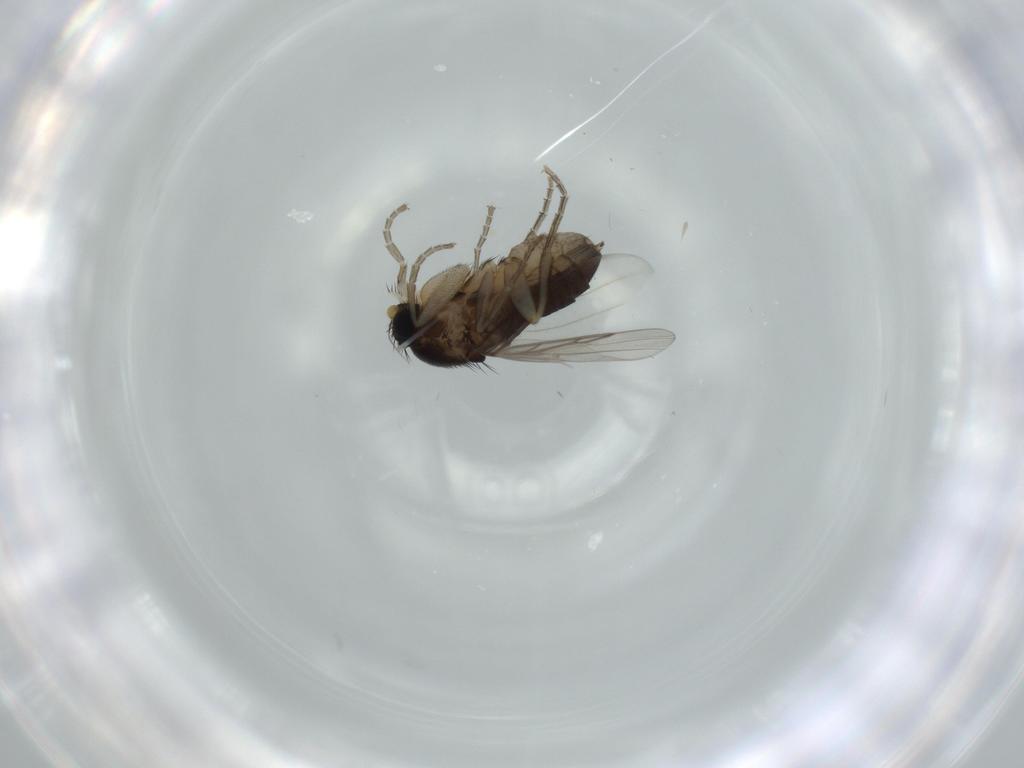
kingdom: Animalia
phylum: Arthropoda
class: Insecta
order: Diptera
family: Phoridae
